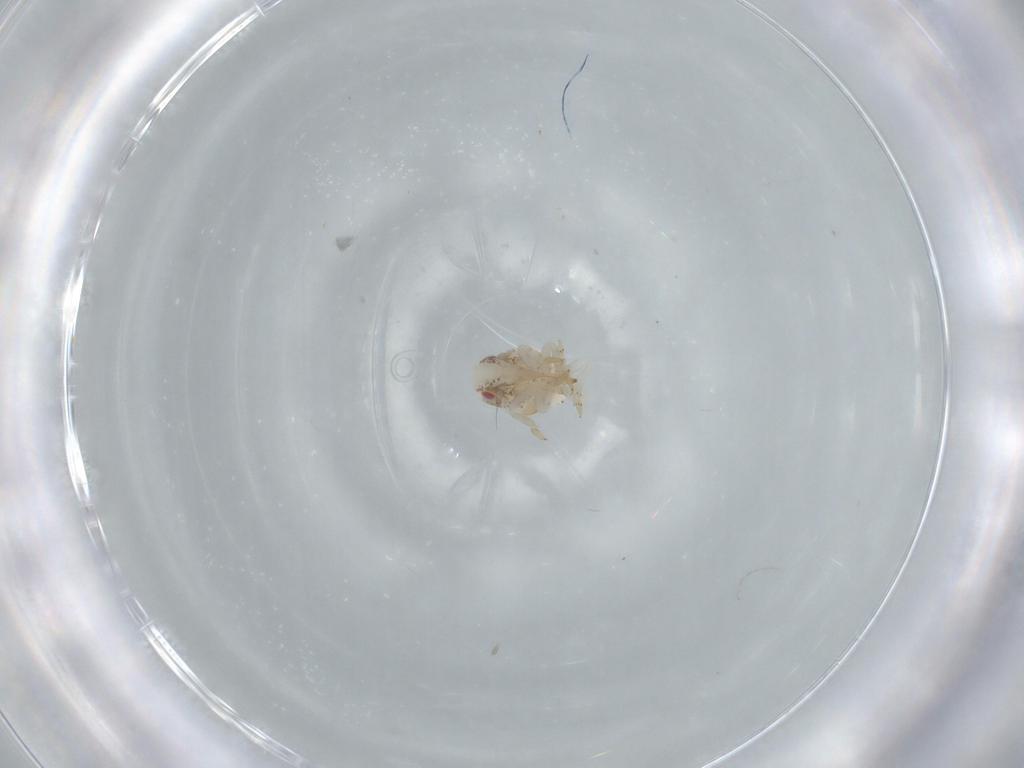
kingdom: Animalia
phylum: Arthropoda
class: Insecta
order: Hemiptera
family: Acanaloniidae
